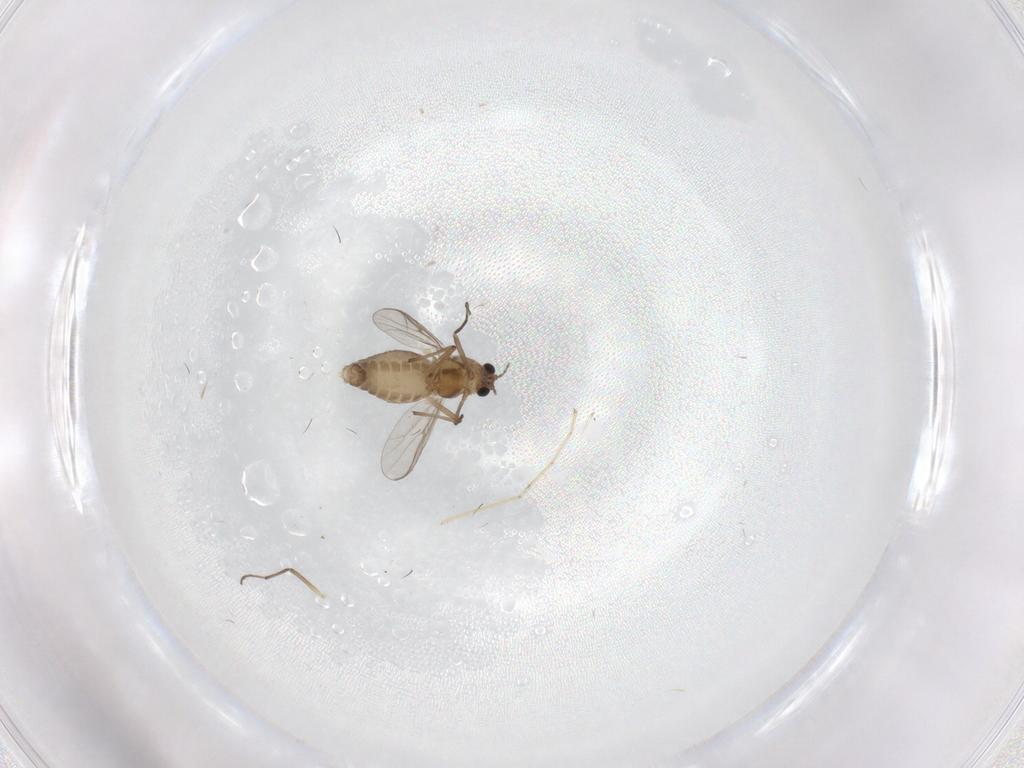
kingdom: Animalia
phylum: Arthropoda
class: Insecta
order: Diptera
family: Chironomidae
